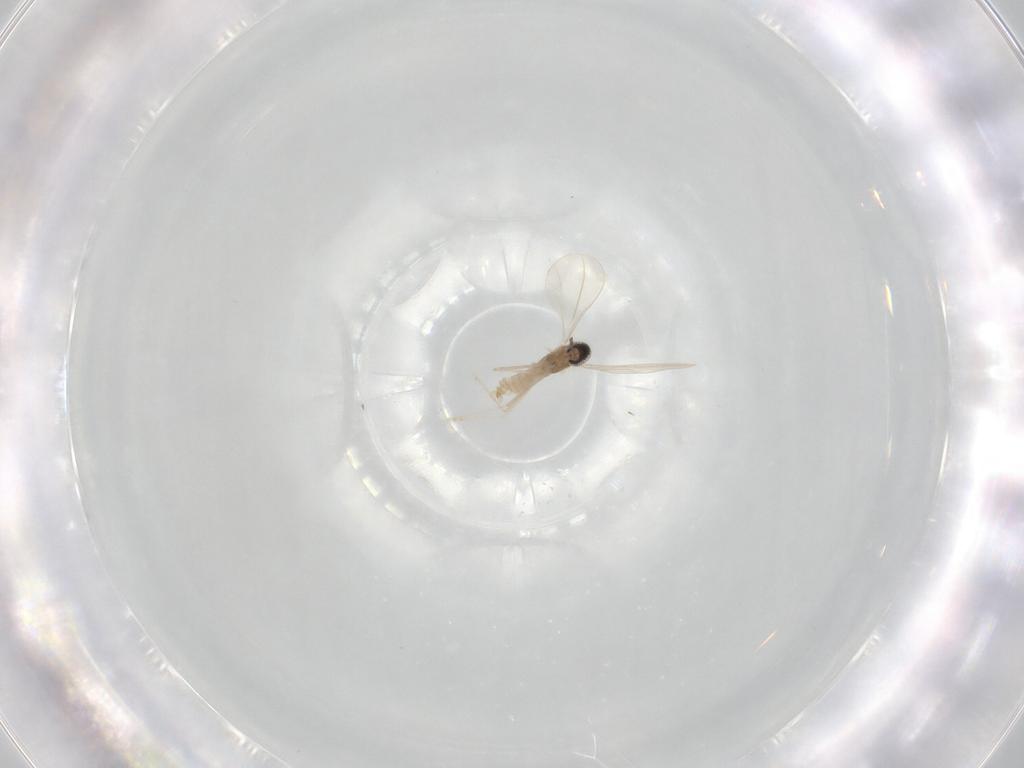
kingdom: Animalia
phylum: Arthropoda
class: Insecta
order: Diptera
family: Cecidomyiidae
